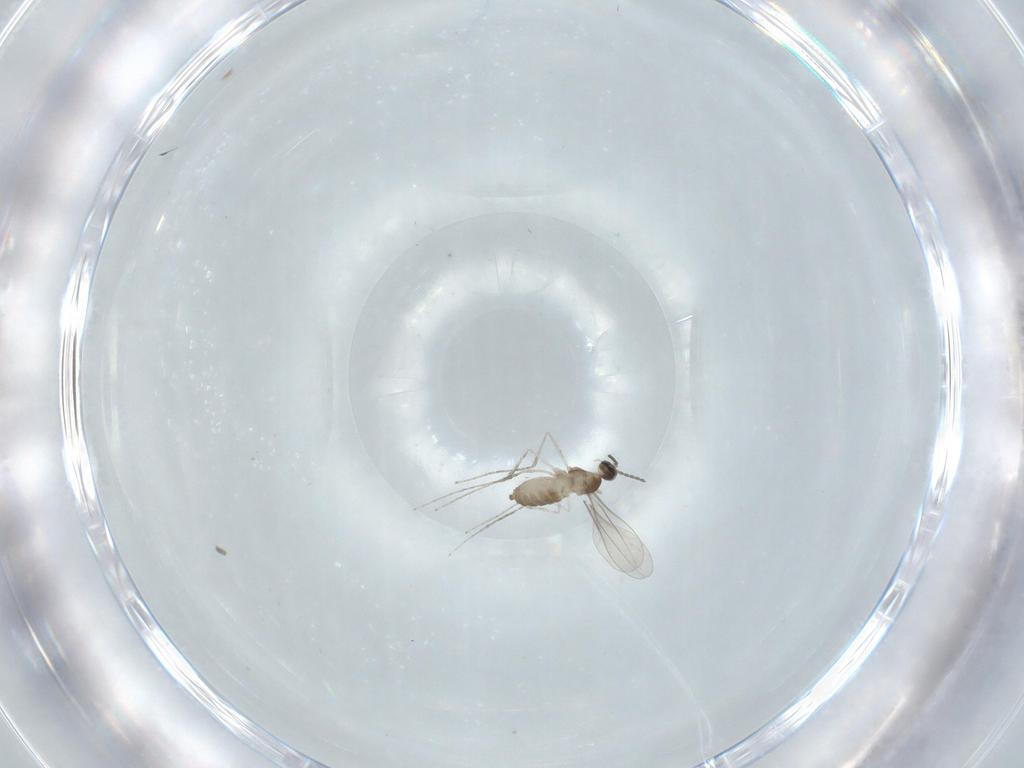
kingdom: Animalia
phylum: Arthropoda
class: Insecta
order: Diptera
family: Cecidomyiidae
